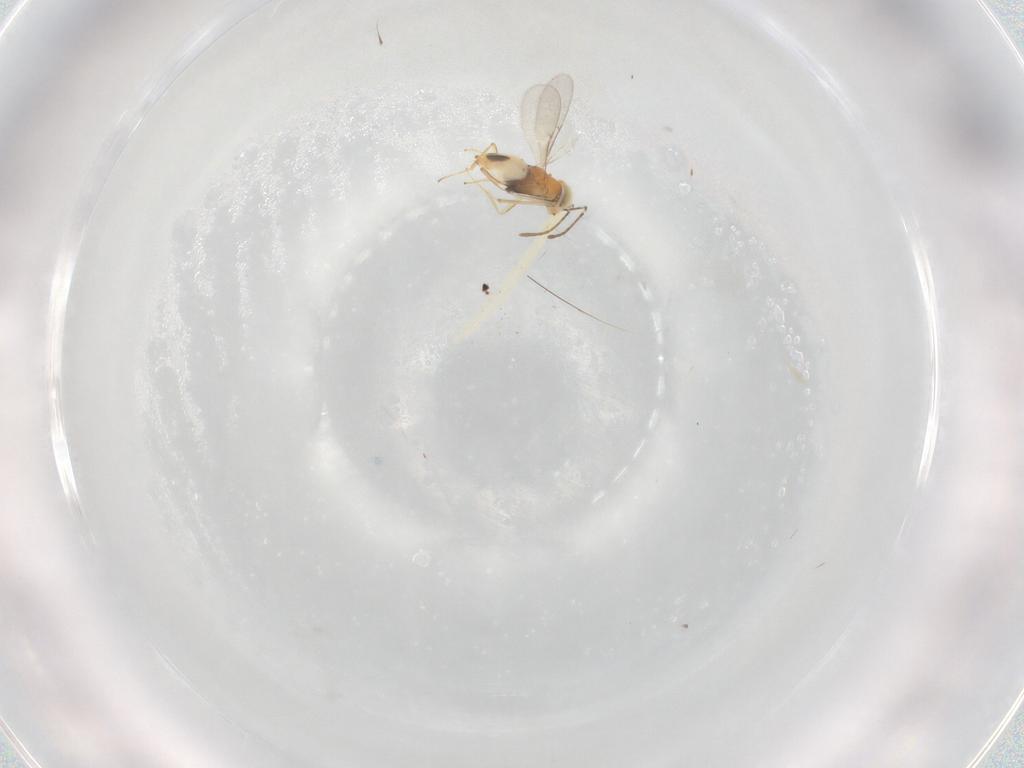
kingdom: Animalia
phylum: Arthropoda
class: Insecta
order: Hymenoptera
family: Encyrtidae
